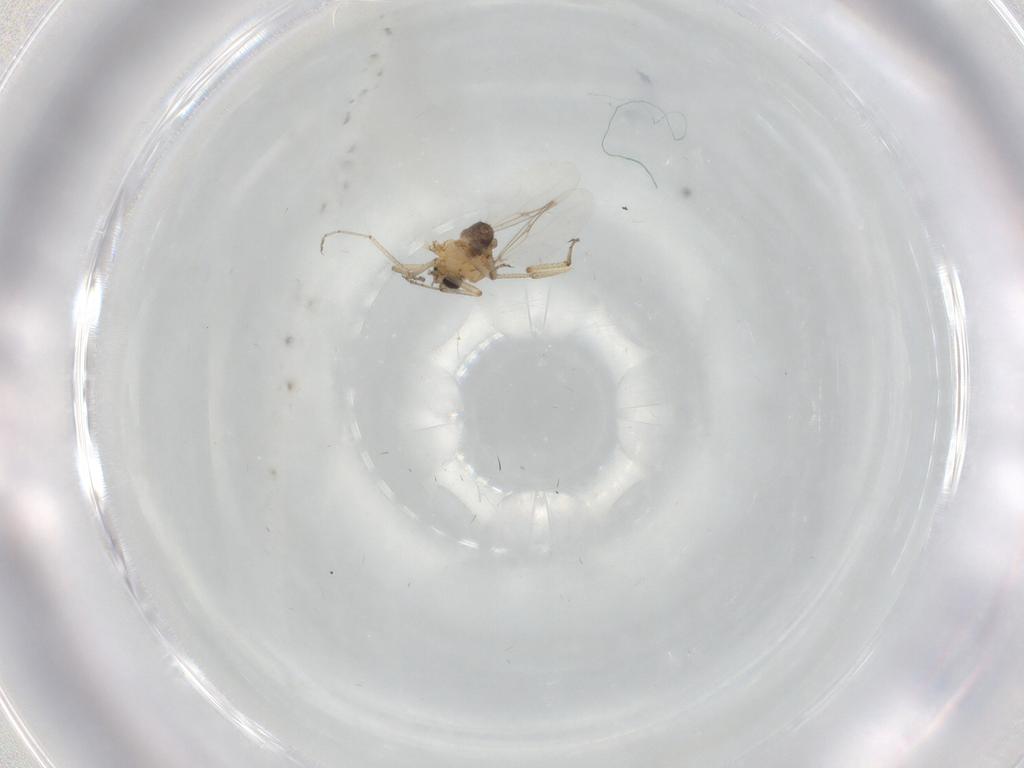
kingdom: Animalia
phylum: Arthropoda
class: Insecta
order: Diptera
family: Ceratopogonidae
